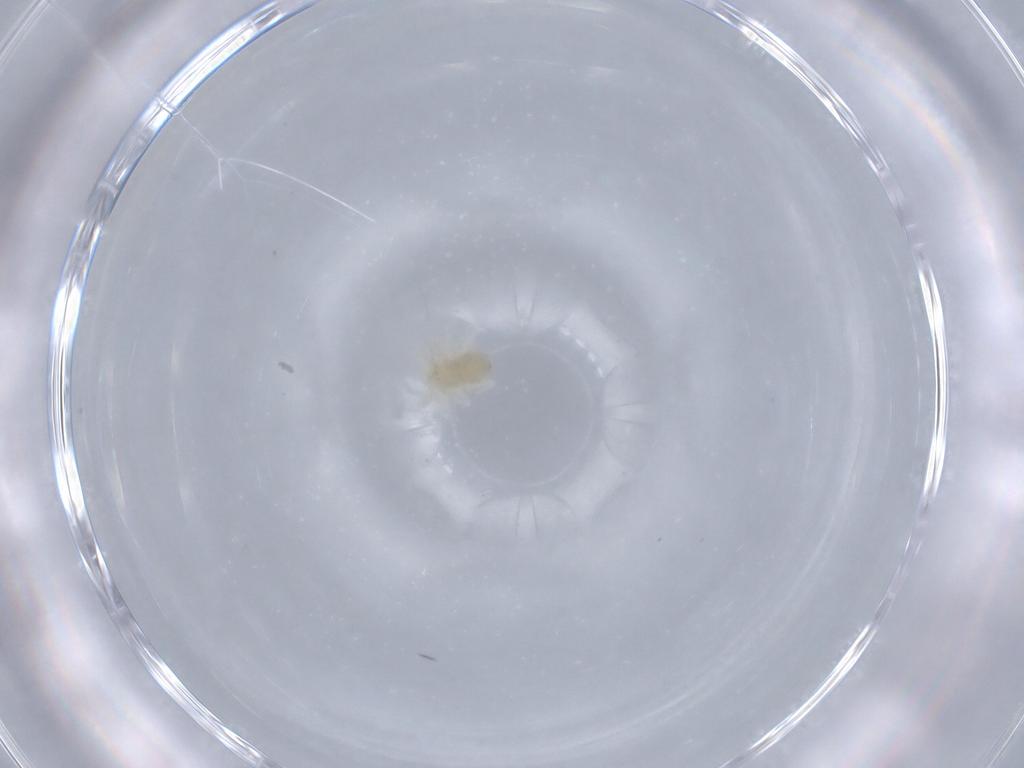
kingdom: Animalia
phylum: Arthropoda
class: Arachnida
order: Trombidiformes
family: Anystidae
